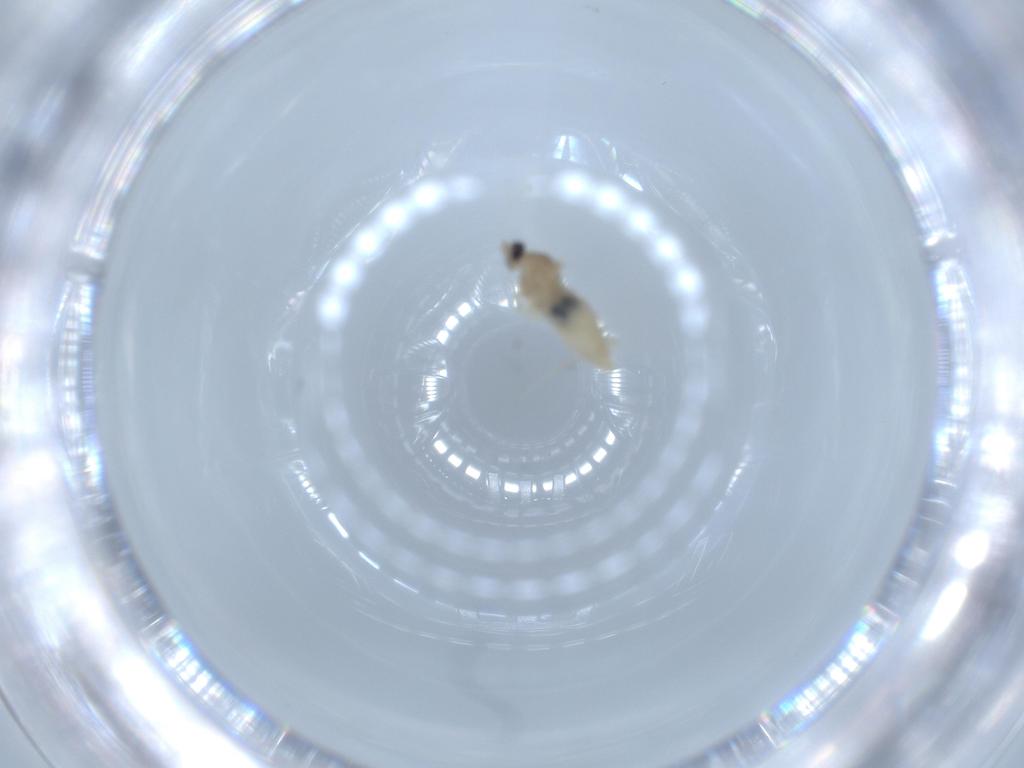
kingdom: Animalia
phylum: Arthropoda
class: Insecta
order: Diptera
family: Cecidomyiidae
